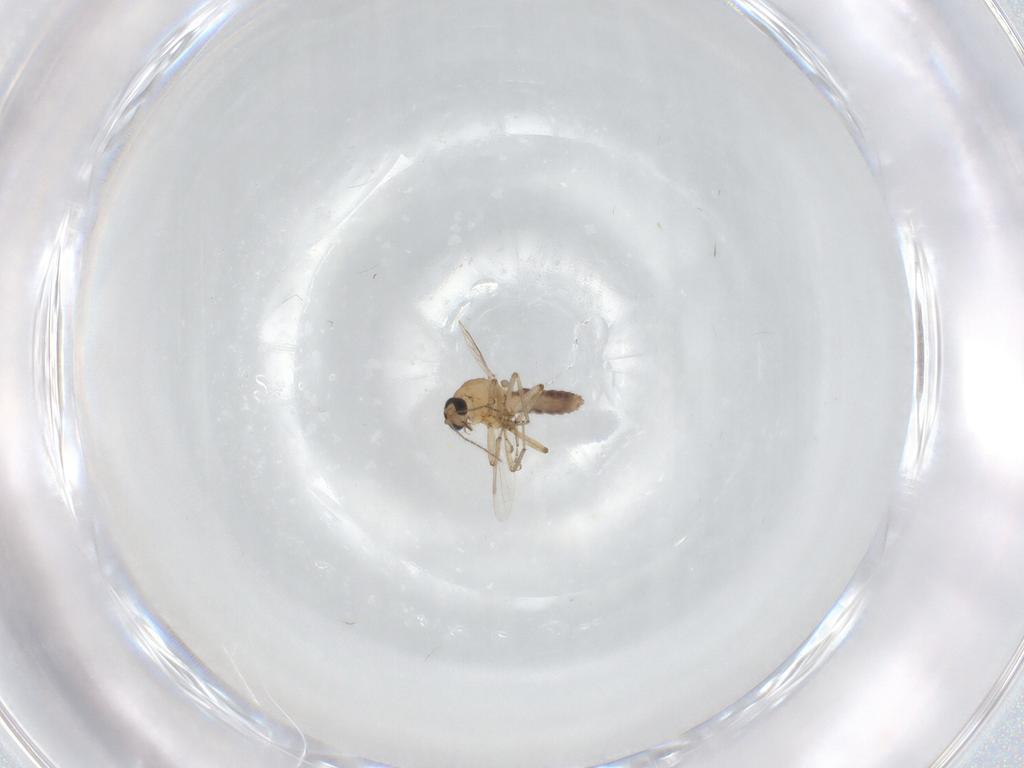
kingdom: Animalia
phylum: Arthropoda
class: Insecta
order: Diptera
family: Ceratopogonidae
